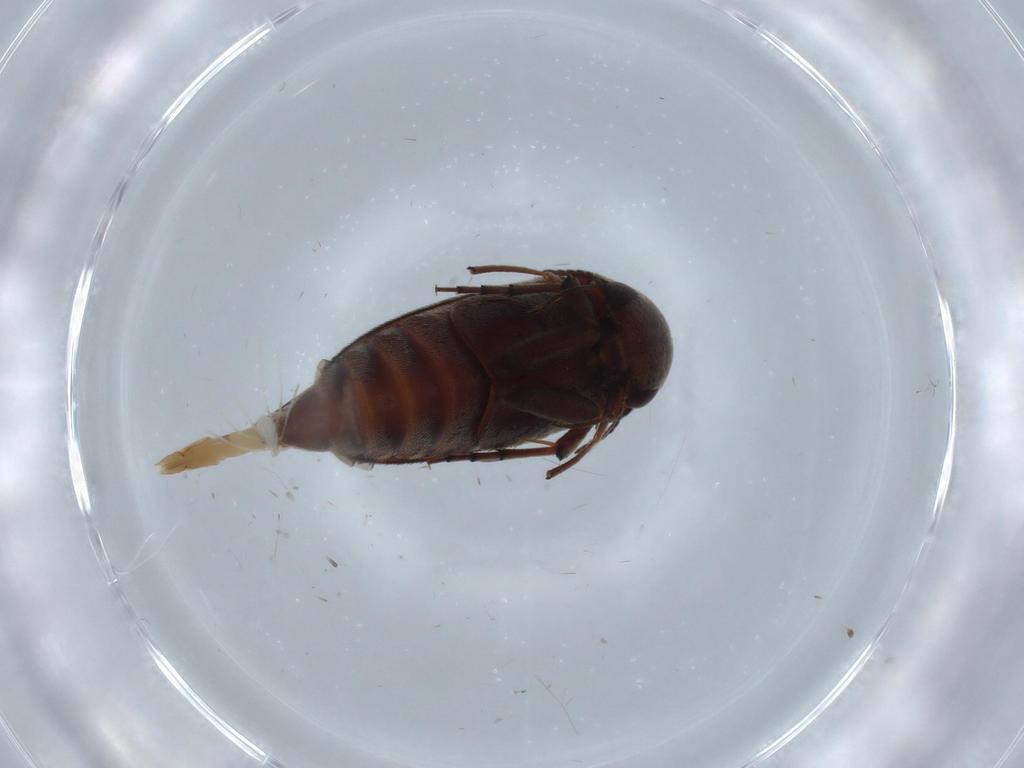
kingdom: Animalia
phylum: Arthropoda
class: Insecta
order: Coleoptera
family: Mordellidae
